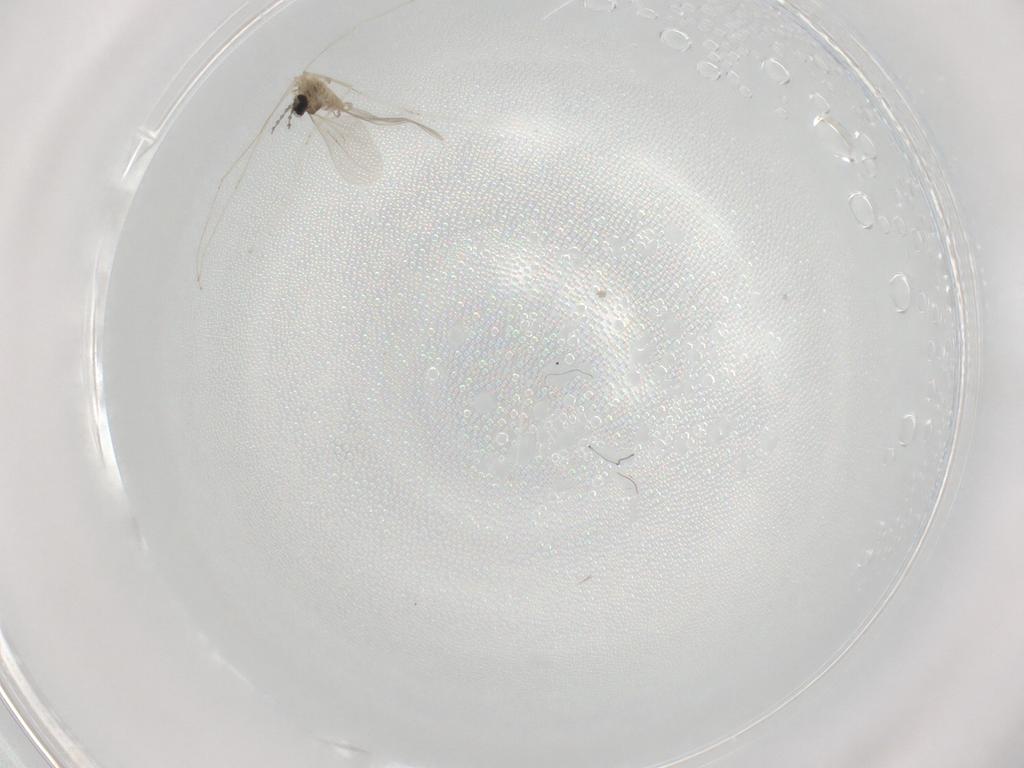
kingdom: Animalia
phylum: Arthropoda
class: Insecta
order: Diptera
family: Cecidomyiidae
